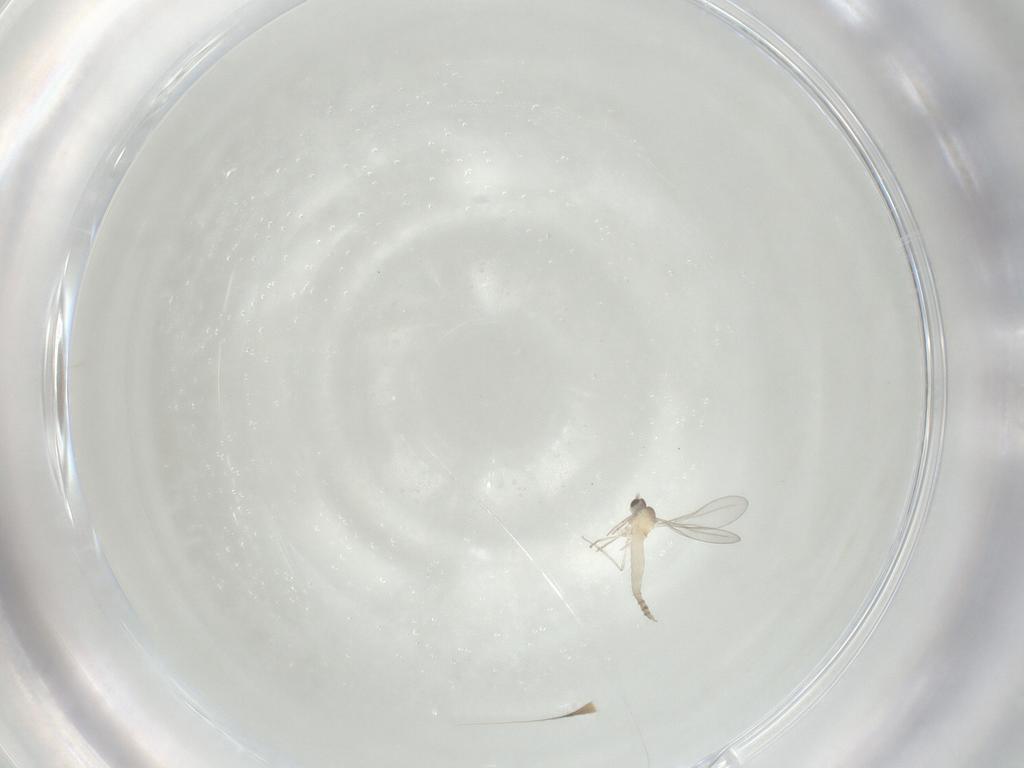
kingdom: Animalia
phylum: Arthropoda
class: Insecta
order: Diptera
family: Cecidomyiidae
